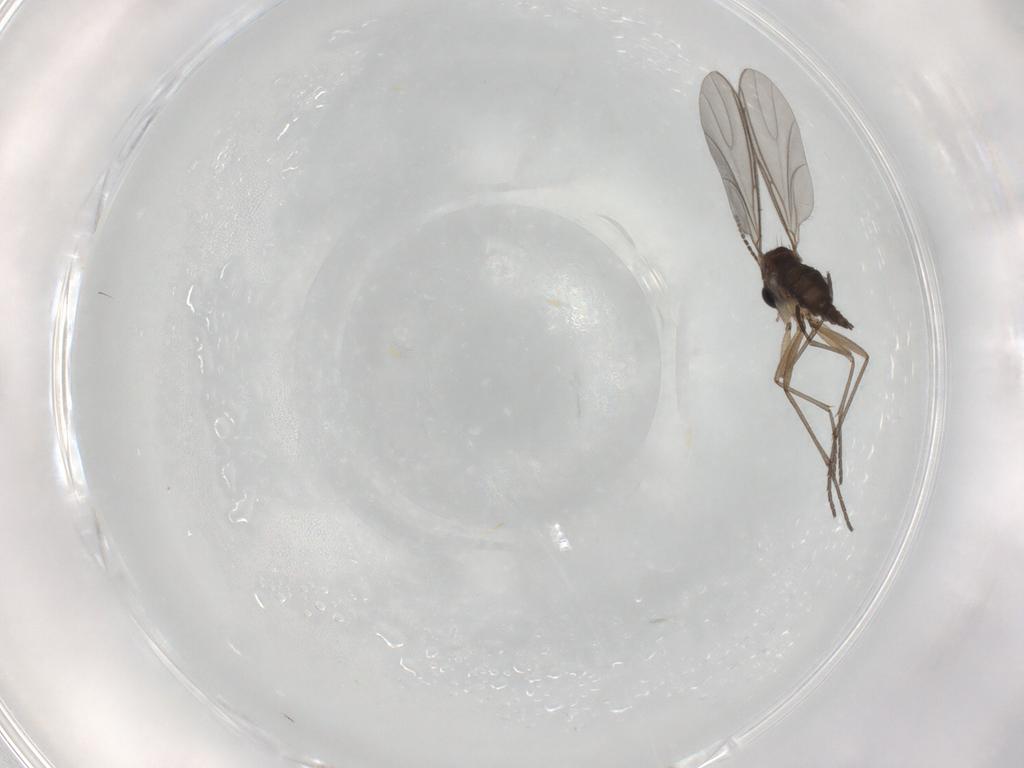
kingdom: Animalia
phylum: Arthropoda
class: Insecta
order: Diptera
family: Sciaridae
